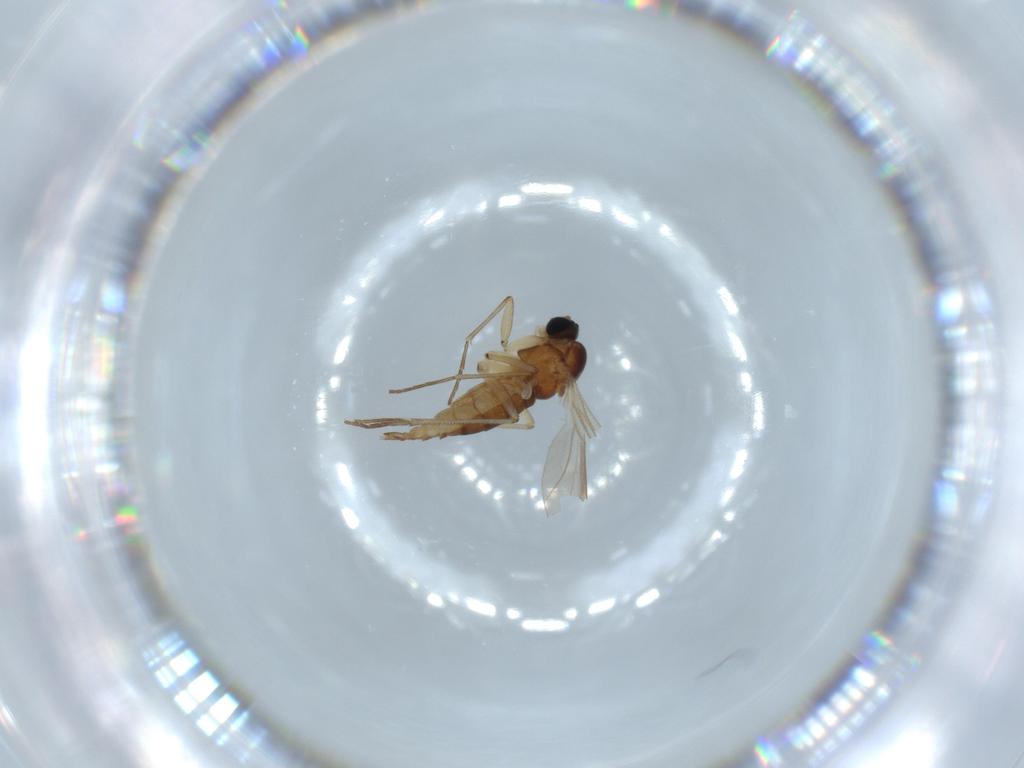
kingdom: Animalia
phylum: Arthropoda
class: Insecta
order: Diptera
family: Sciaridae
